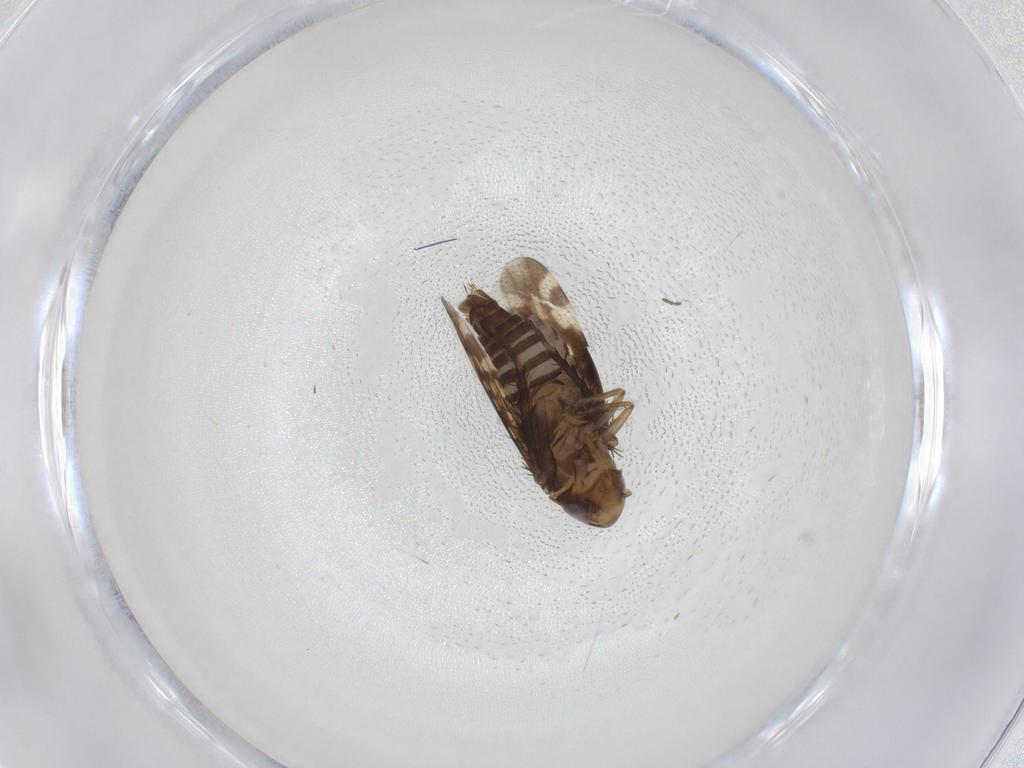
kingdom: Animalia
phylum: Arthropoda
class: Insecta
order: Hemiptera
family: Cicadellidae
